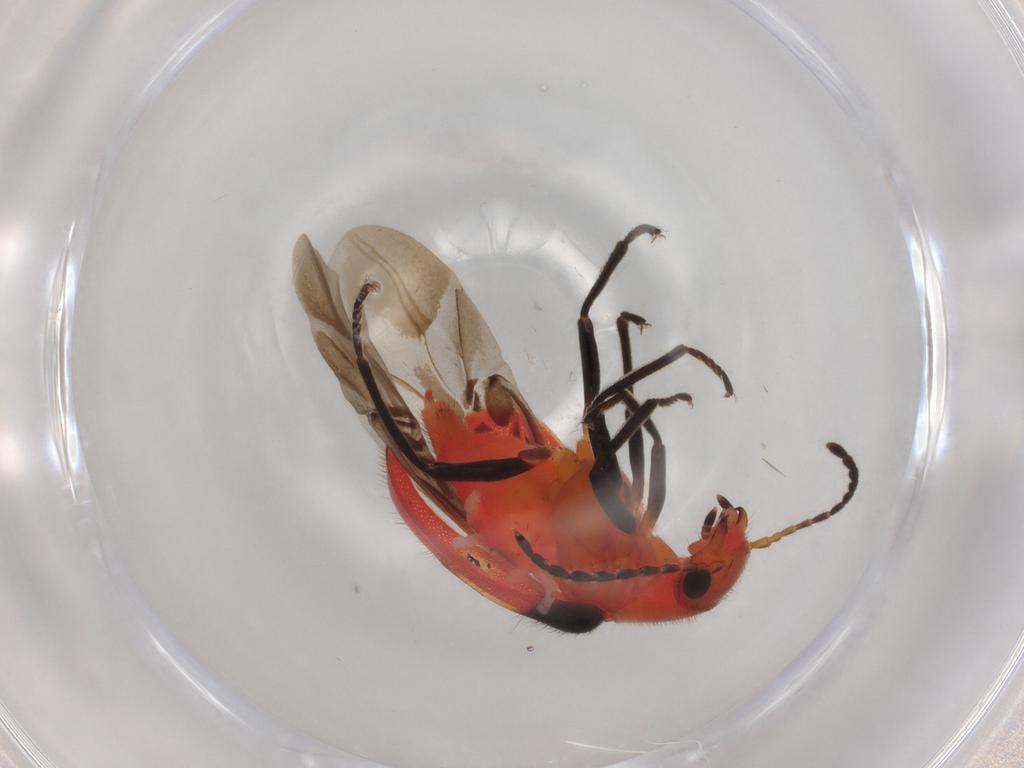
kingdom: Animalia
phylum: Arthropoda
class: Insecta
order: Coleoptera
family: Melyridae
